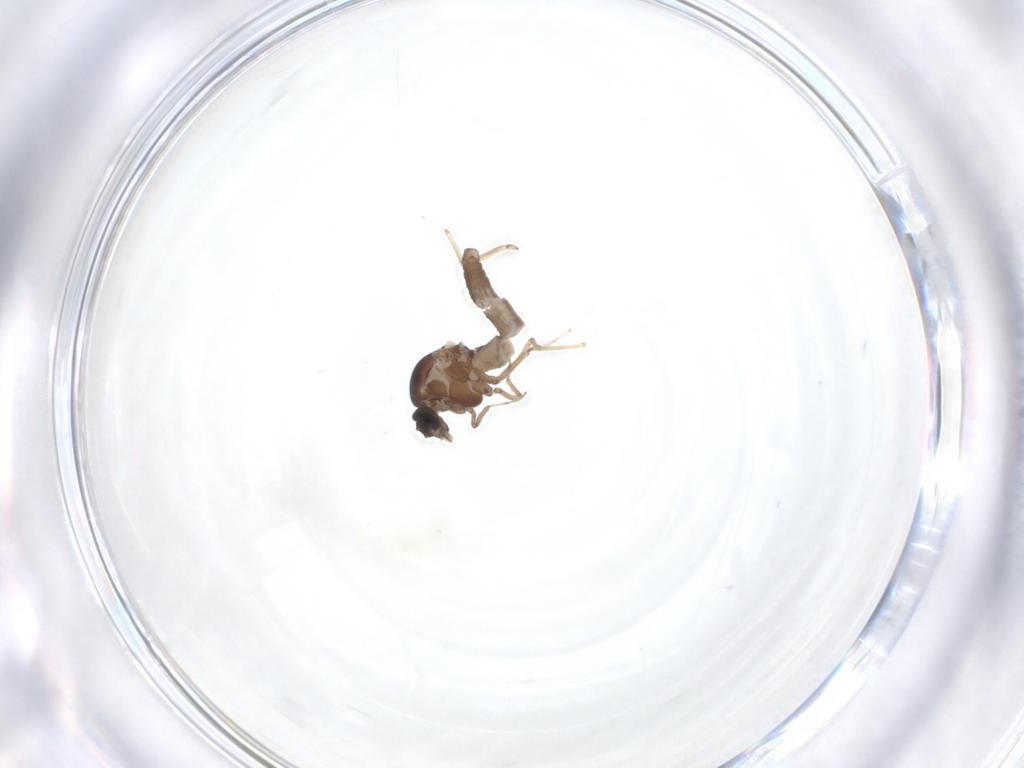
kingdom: Animalia
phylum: Arthropoda
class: Insecta
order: Diptera
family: Ceratopogonidae
